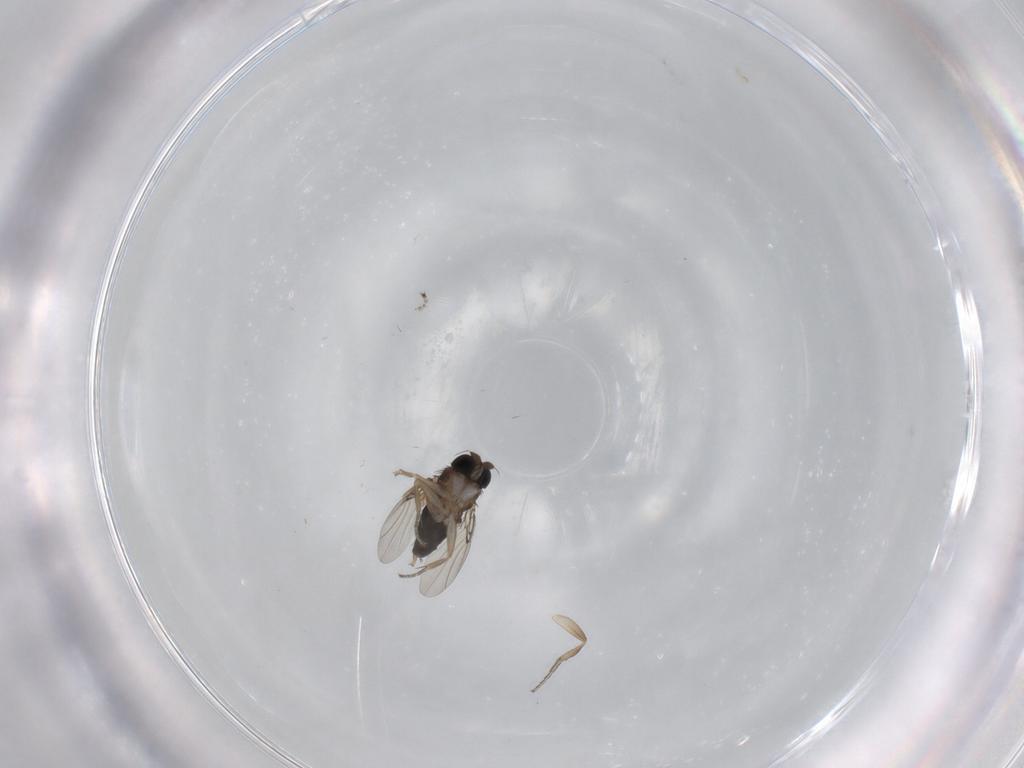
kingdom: Animalia
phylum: Arthropoda
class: Insecta
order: Diptera
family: Phoridae
